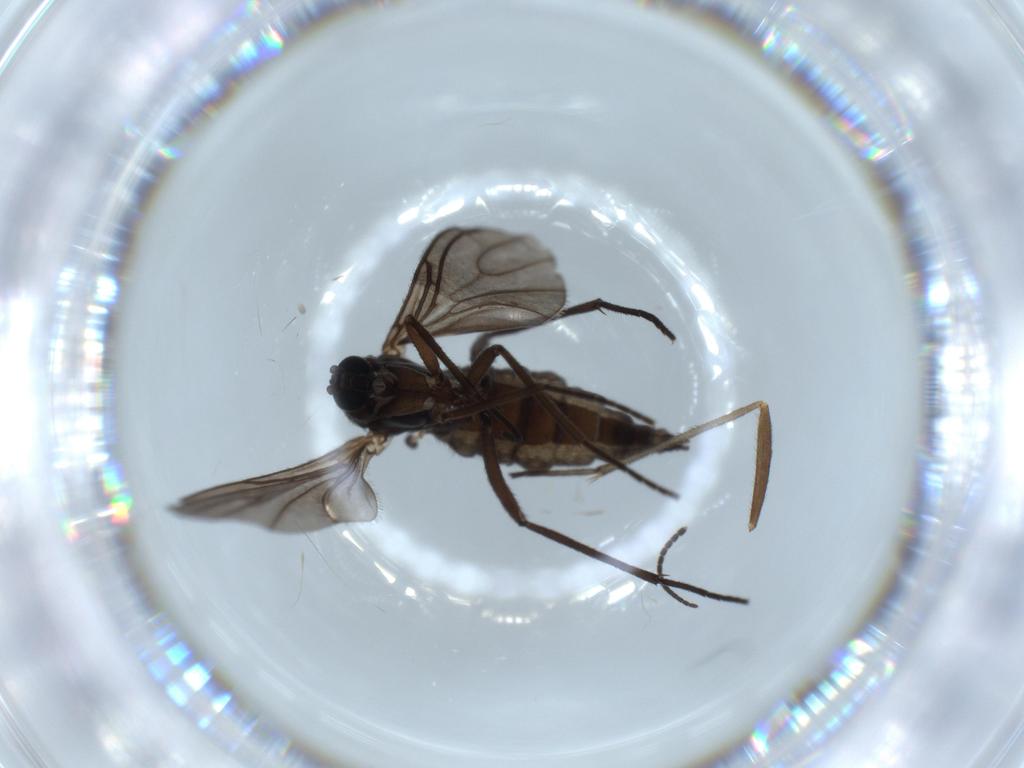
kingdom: Animalia
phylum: Arthropoda
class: Insecta
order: Diptera
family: Sciaridae
